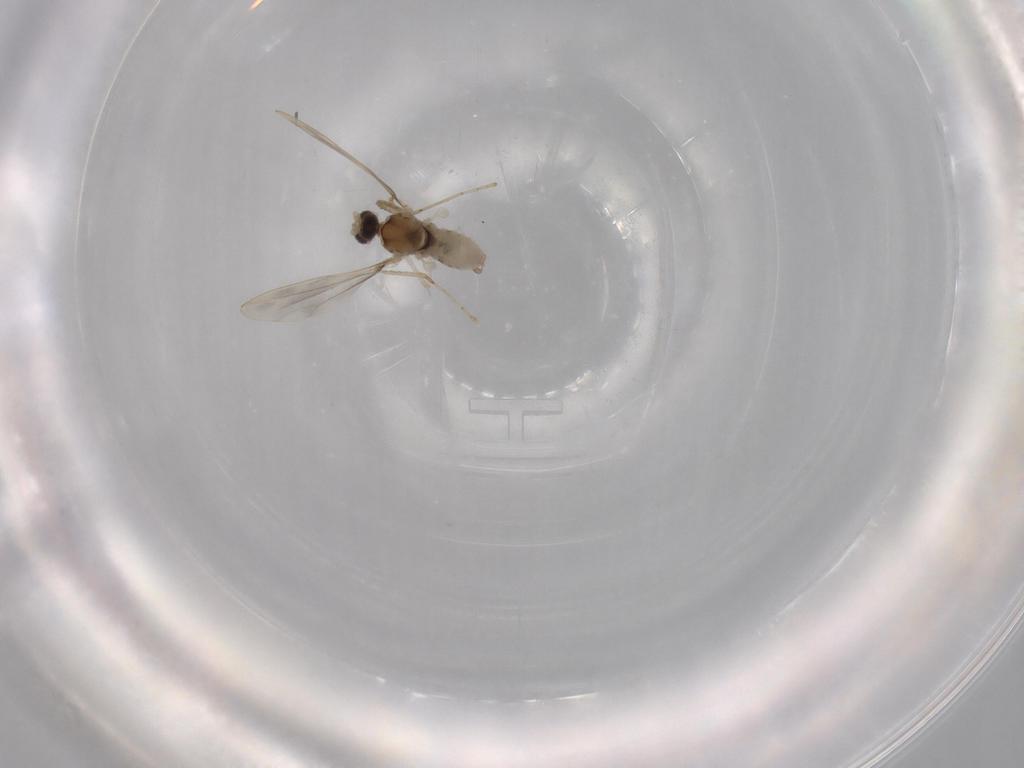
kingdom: Animalia
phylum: Arthropoda
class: Insecta
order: Diptera
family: Cecidomyiidae
